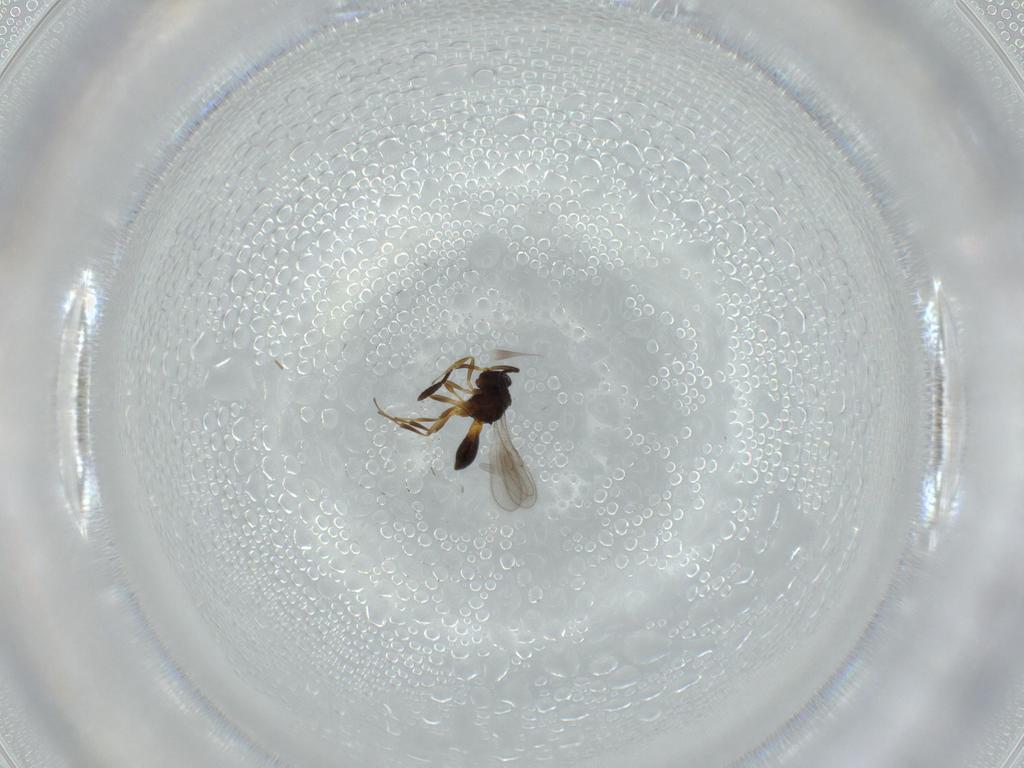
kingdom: Animalia
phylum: Arthropoda
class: Insecta
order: Hymenoptera
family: Scelionidae
